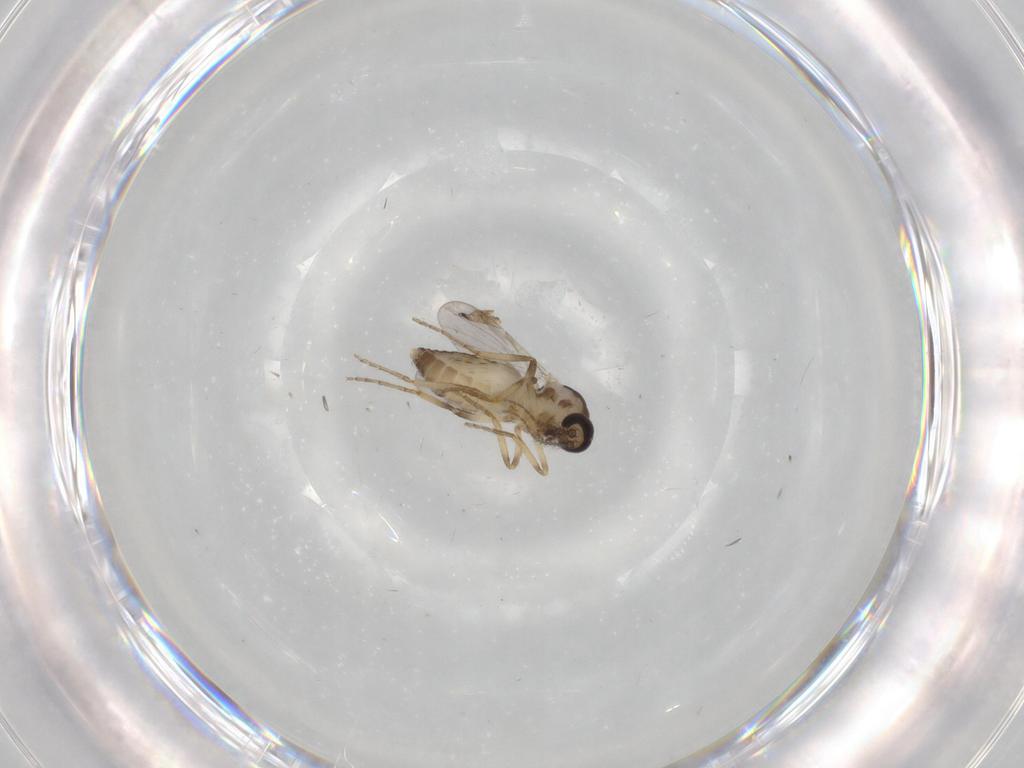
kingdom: Animalia
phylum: Arthropoda
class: Insecta
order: Diptera
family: Ceratopogonidae
